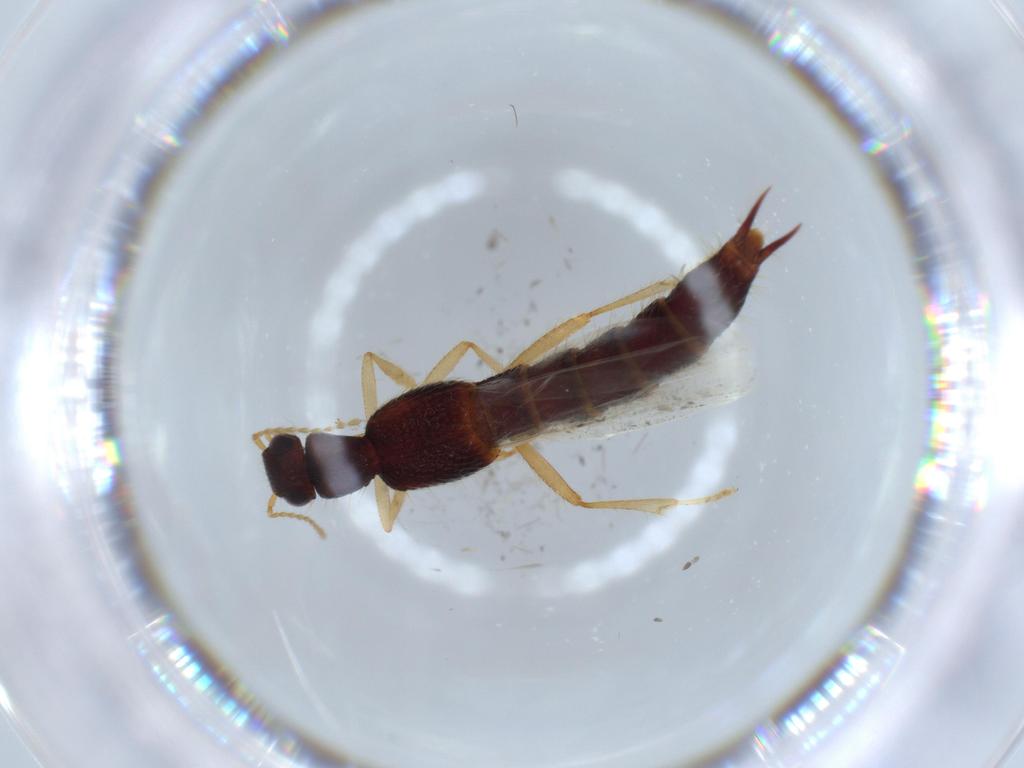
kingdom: Animalia
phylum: Arthropoda
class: Insecta
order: Coleoptera
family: Staphylinidae
